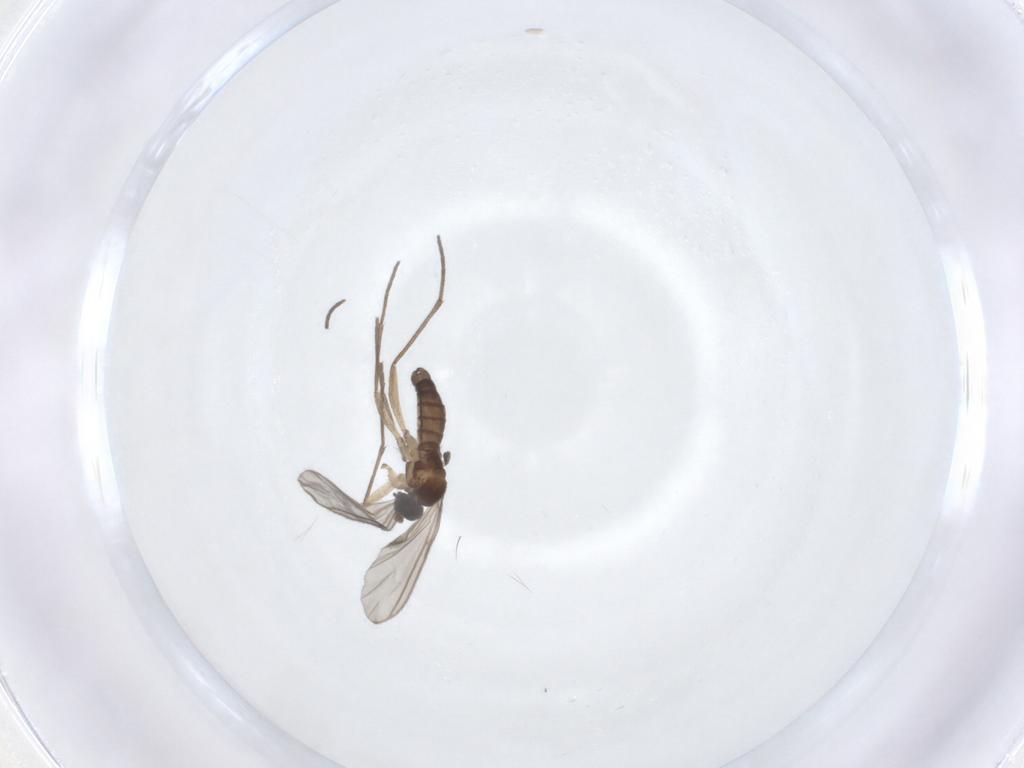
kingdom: Animalia
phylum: Arthropoda
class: Insecta
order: Diptera
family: Sciaridae
